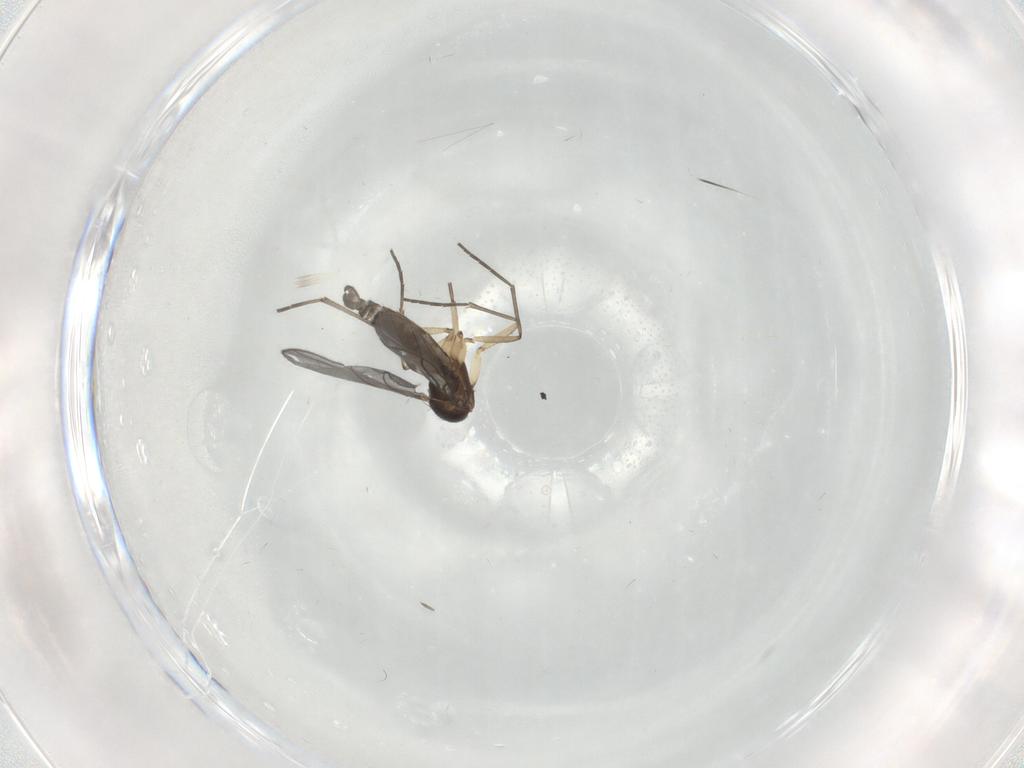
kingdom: Animalia
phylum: Arthropoda
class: Insecta
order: Diptera
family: Sciaridae
